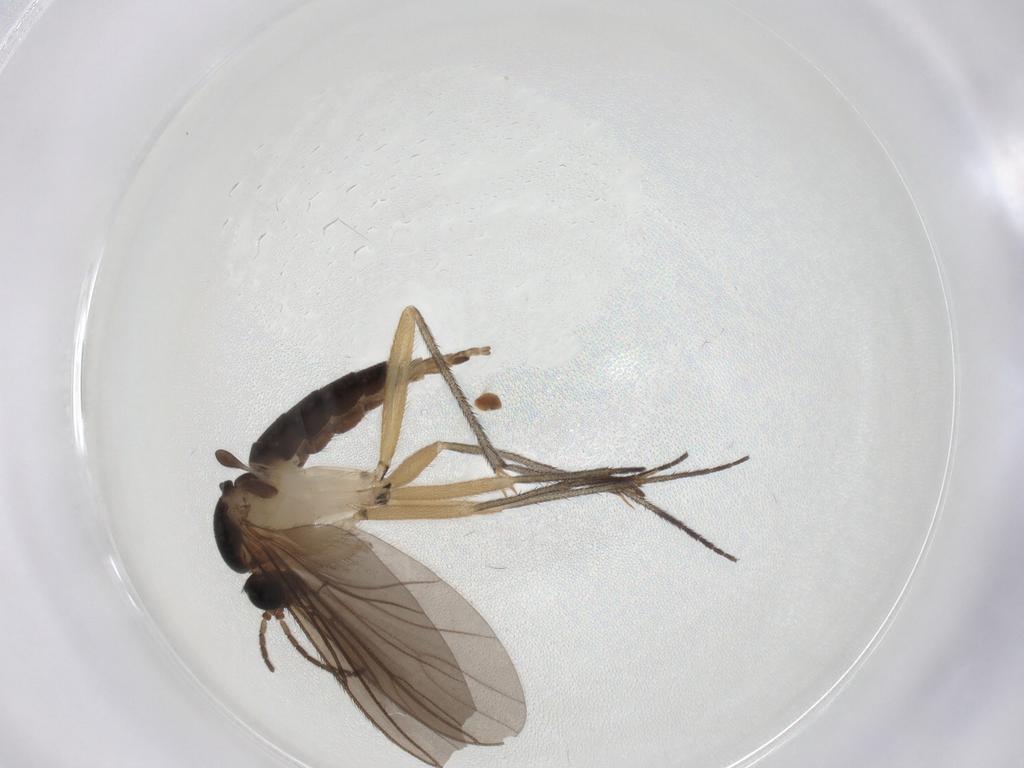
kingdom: Animalia
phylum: Arthropoda
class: Insecta
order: Diptera
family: Sciaridae
